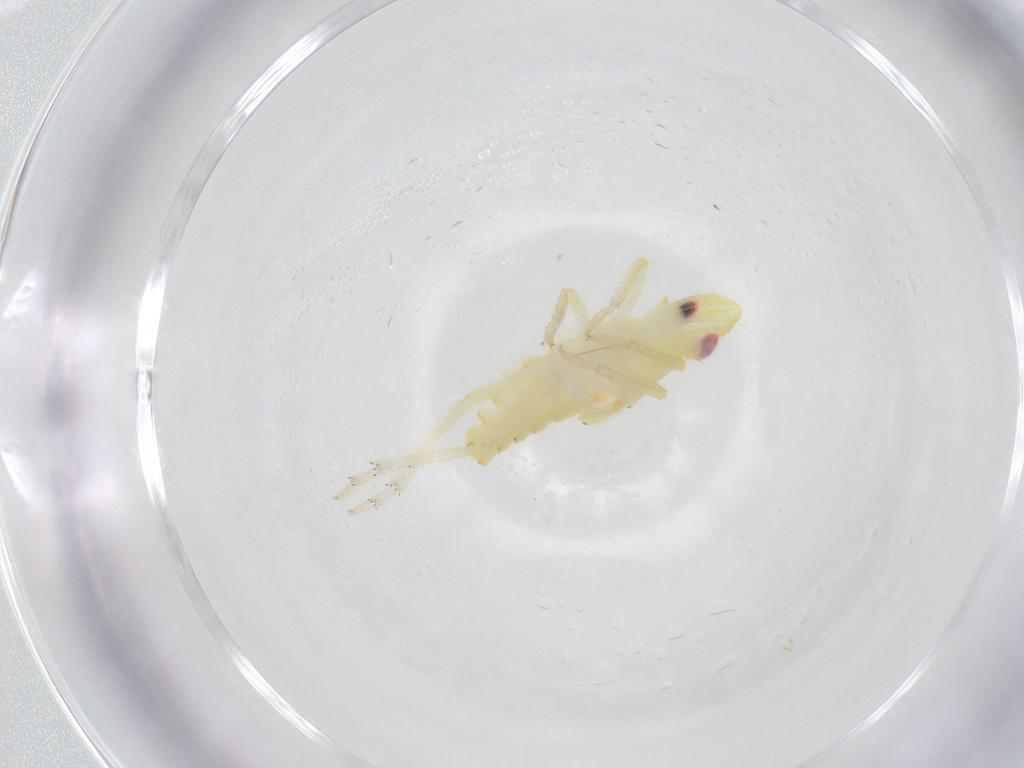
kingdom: Animalia
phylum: Arthropoda
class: Insecta
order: Hemiptera
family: Tropiduchidae
